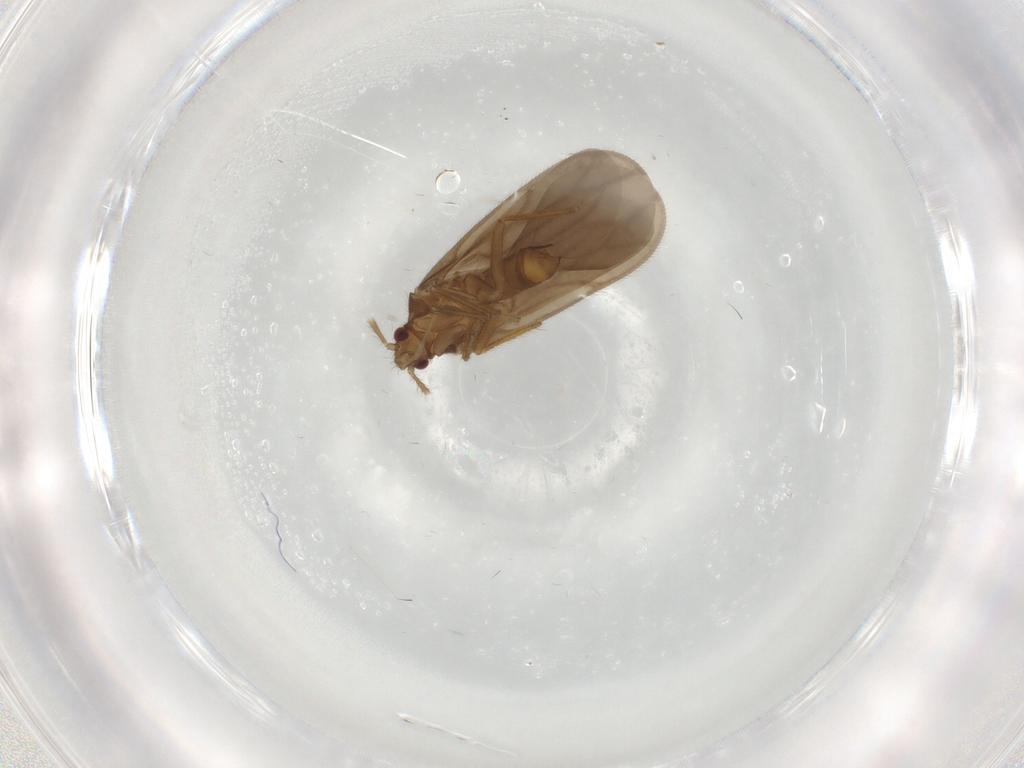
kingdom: Animalia
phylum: Arthropoda
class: Insecta
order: Hemiptera
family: Ceratocombidae
